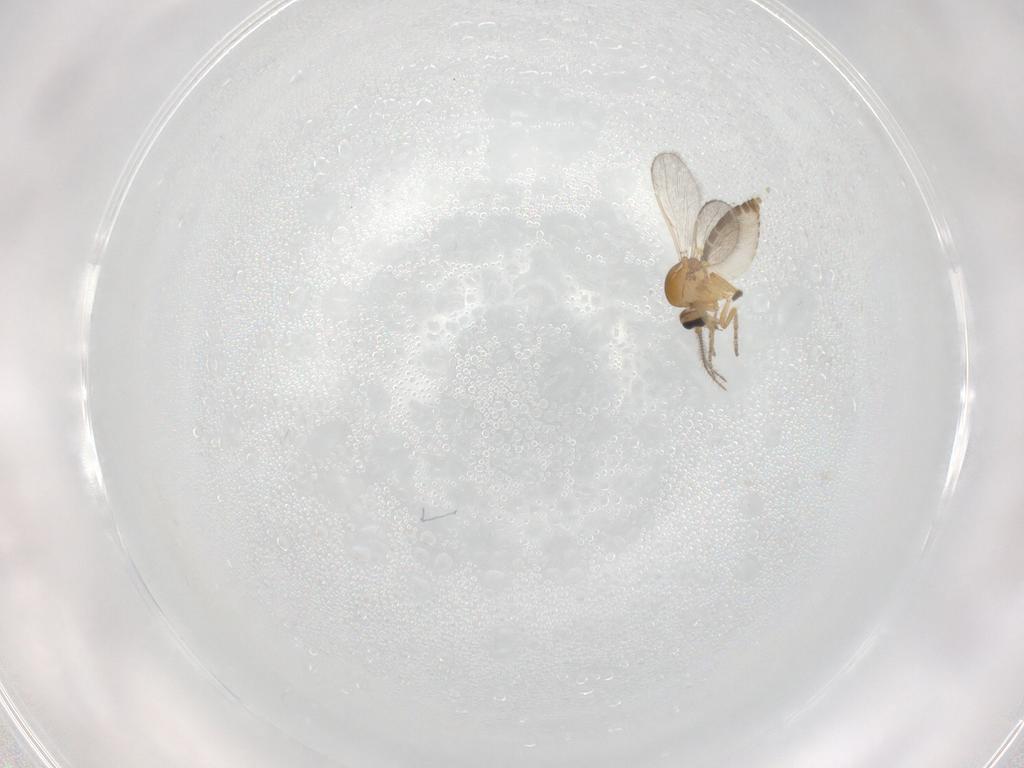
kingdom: Animalia
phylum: Arthropoda
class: Insecta
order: Diptera
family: Ceratopogonidae
